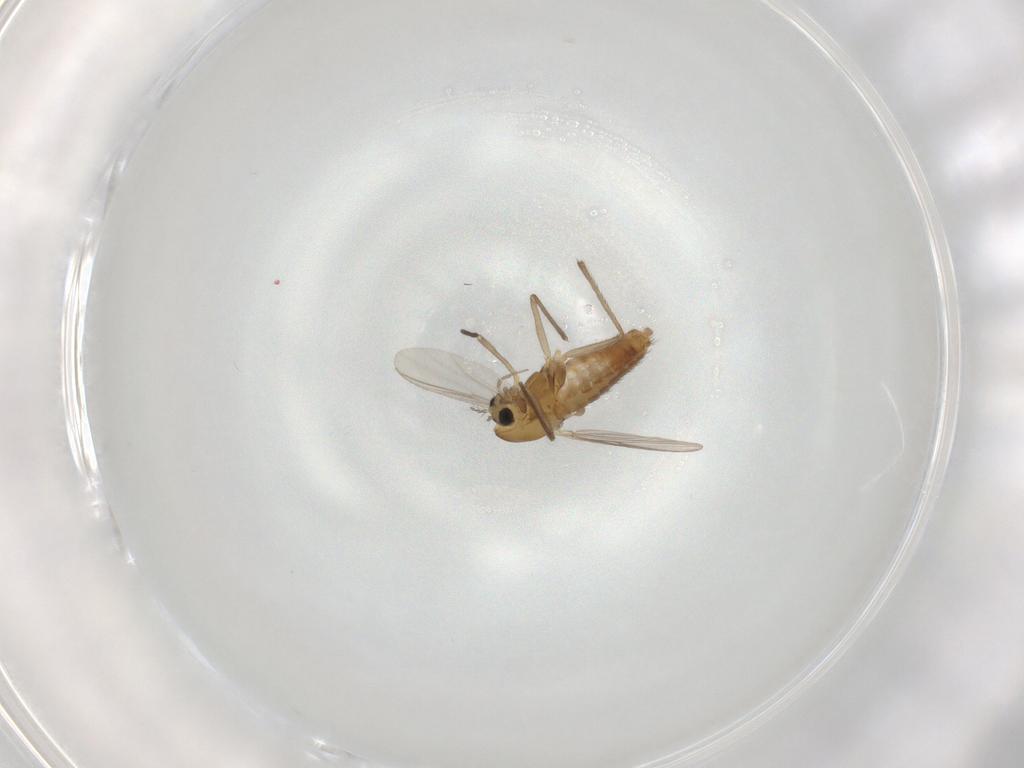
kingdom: Animalia
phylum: Arthropoda
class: Insecta
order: Diptera
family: Chironomidae
